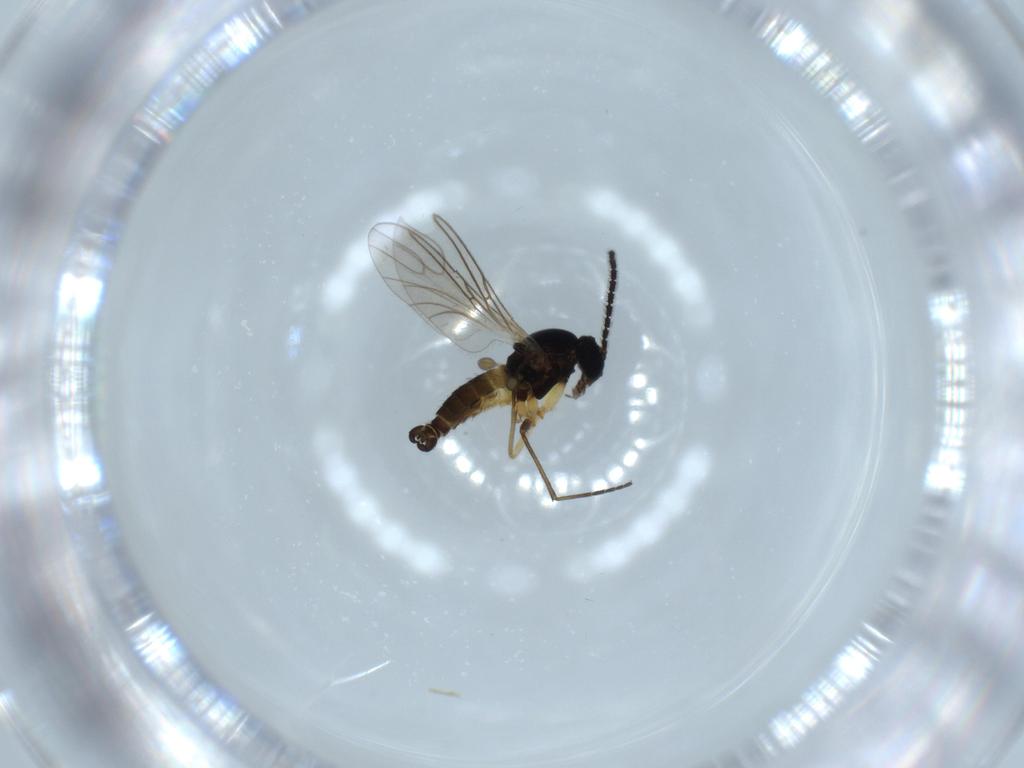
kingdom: Animalia
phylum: Arthropoda
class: Insecta
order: Diptera
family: Sciaridae
